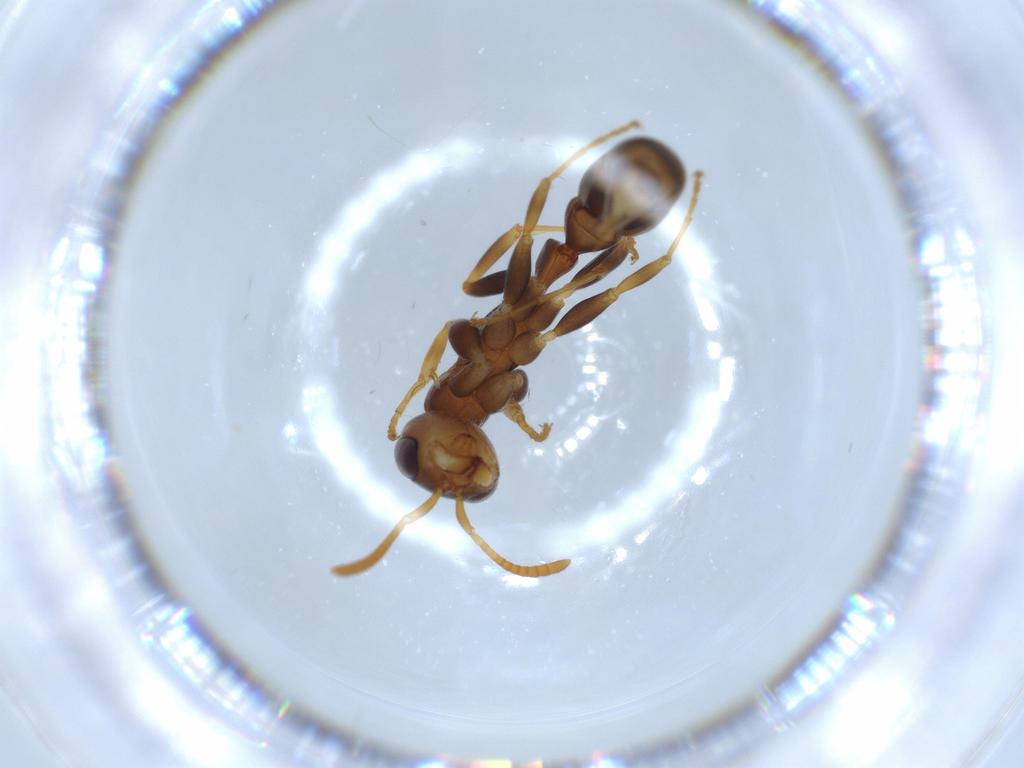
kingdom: Animalia
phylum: Arthropoda
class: Insecta
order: Hymenoptera
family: Formicidae
